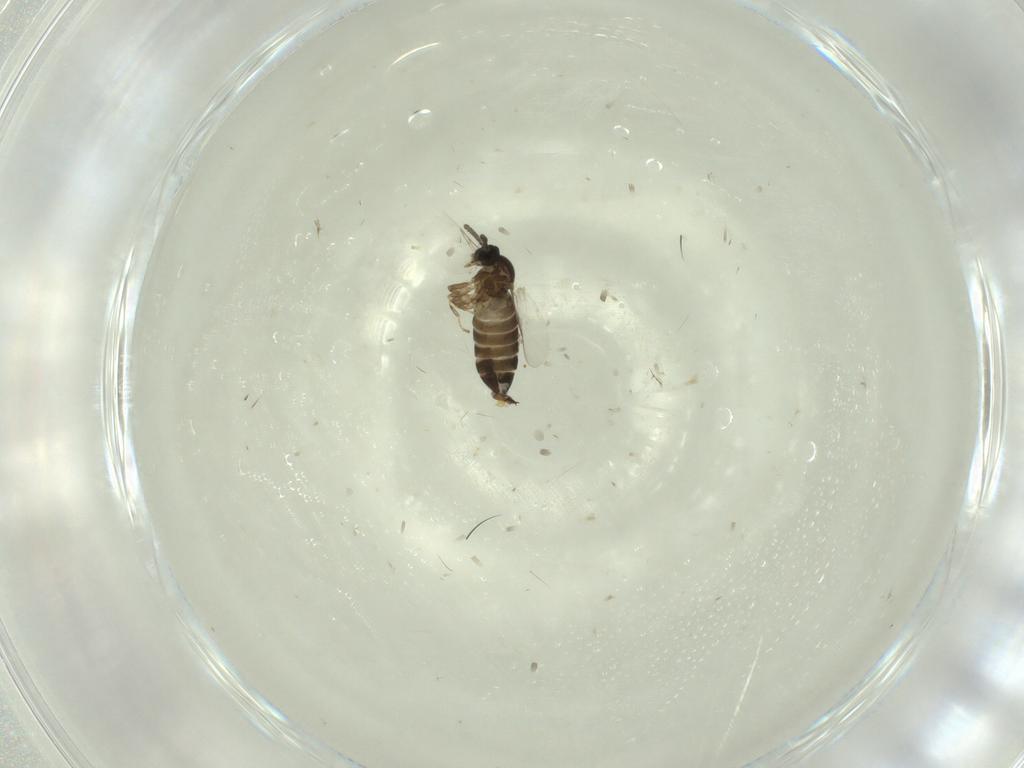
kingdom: Animalia
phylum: Arthropoda
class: Insecta
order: Diptera
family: Scatopsidae
